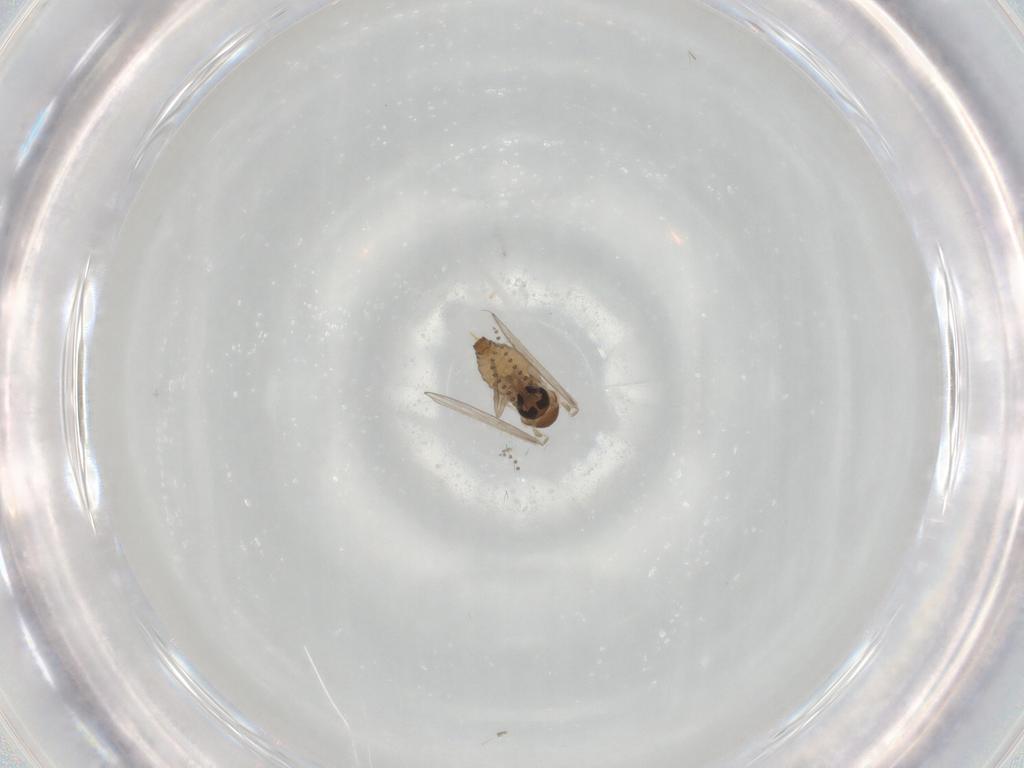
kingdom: Animalia
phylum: Arthropoda
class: Insecta
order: Diptera
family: Psychodidae
